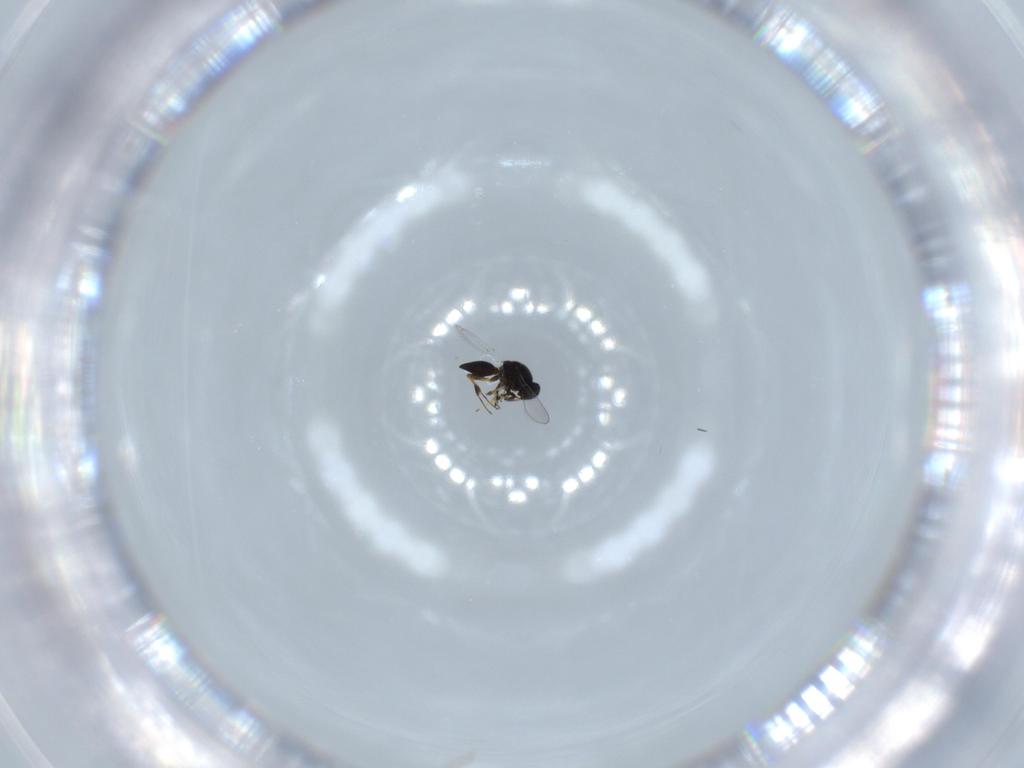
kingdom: Animalia
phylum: Arthropoda
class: Insecta
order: Hymenoptera
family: Platygastridae
